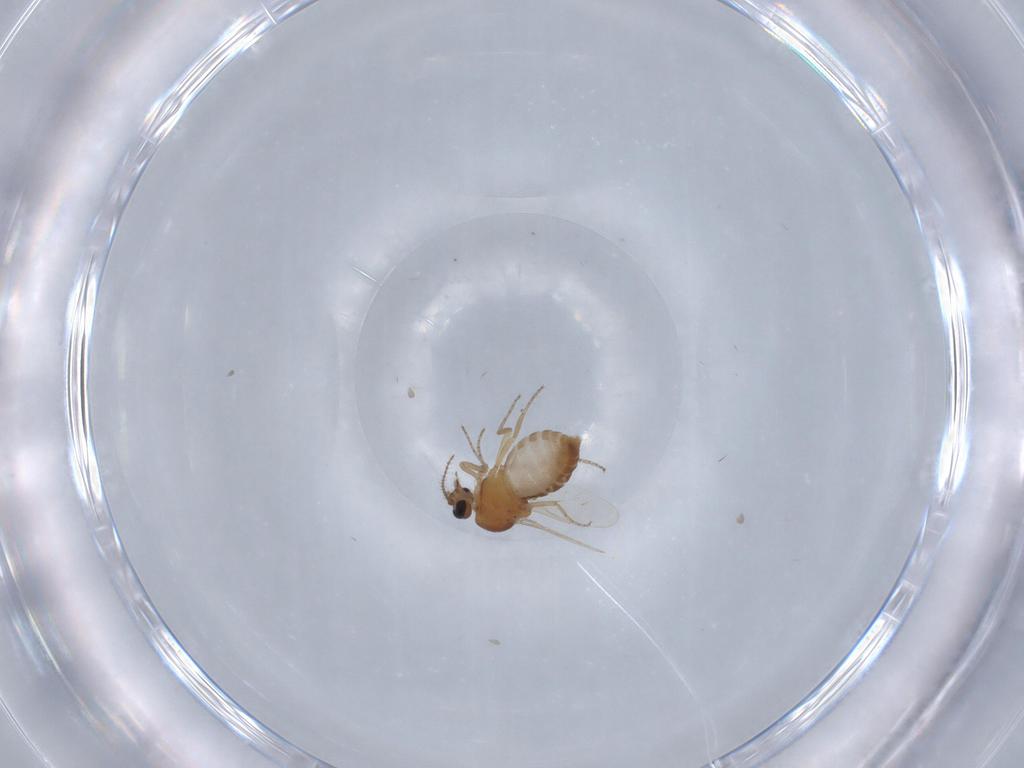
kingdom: Animalia
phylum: Arthropoda
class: Insecta
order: Diptera
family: Ceratopogonidae
